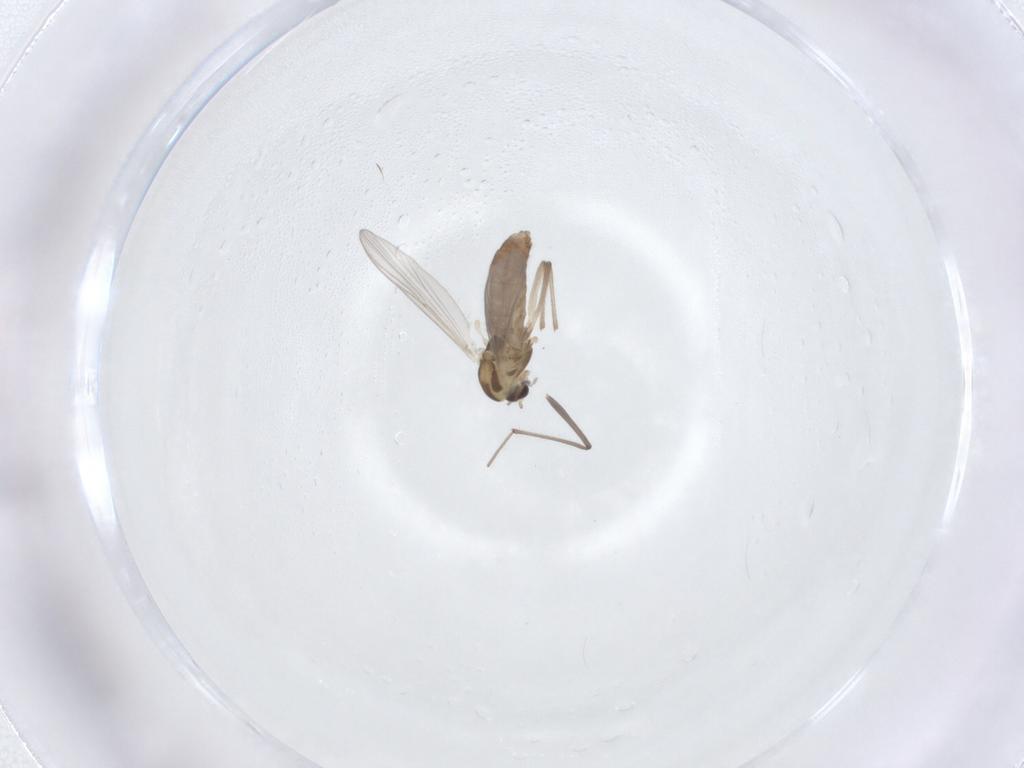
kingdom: Animalia
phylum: Arthropoda
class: Insecta
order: Diptera
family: Chironomidae
